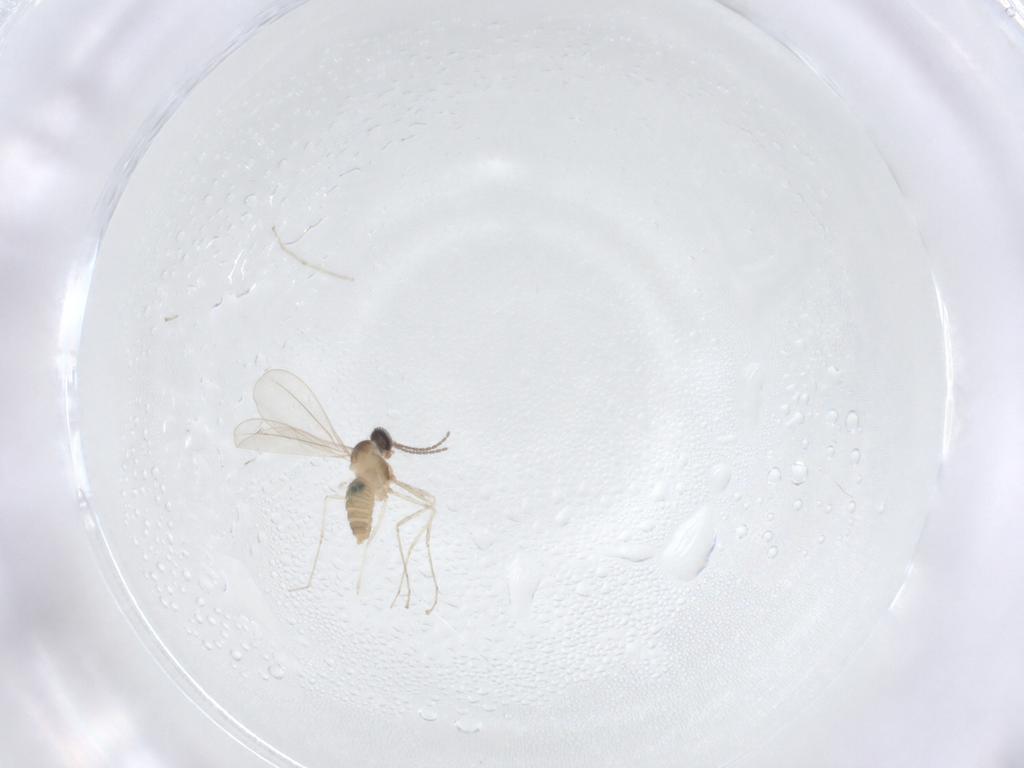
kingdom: Animalia
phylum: Arthropoda
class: Insecta
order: Diptera
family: Cecidomyiidae
